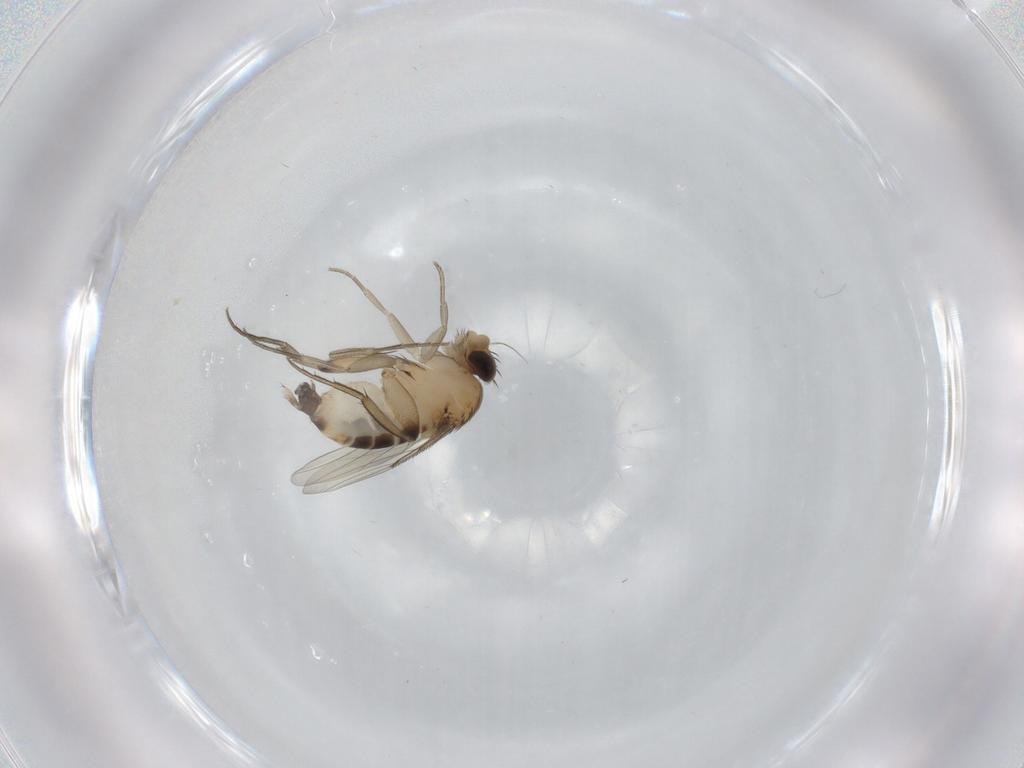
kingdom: Animalia
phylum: Arthropoda
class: Insecta
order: Diptera
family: Phoridae
